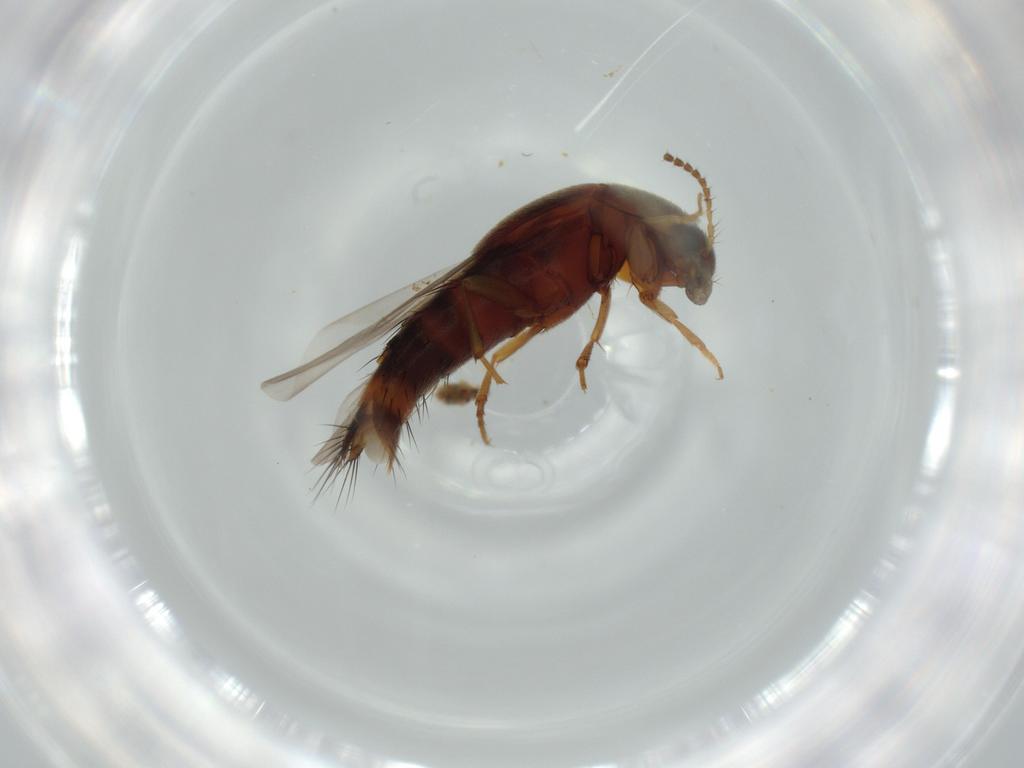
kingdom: Animalia
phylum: Arthropoda
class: Insecta
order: Coleoptera
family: Staphylinidae
